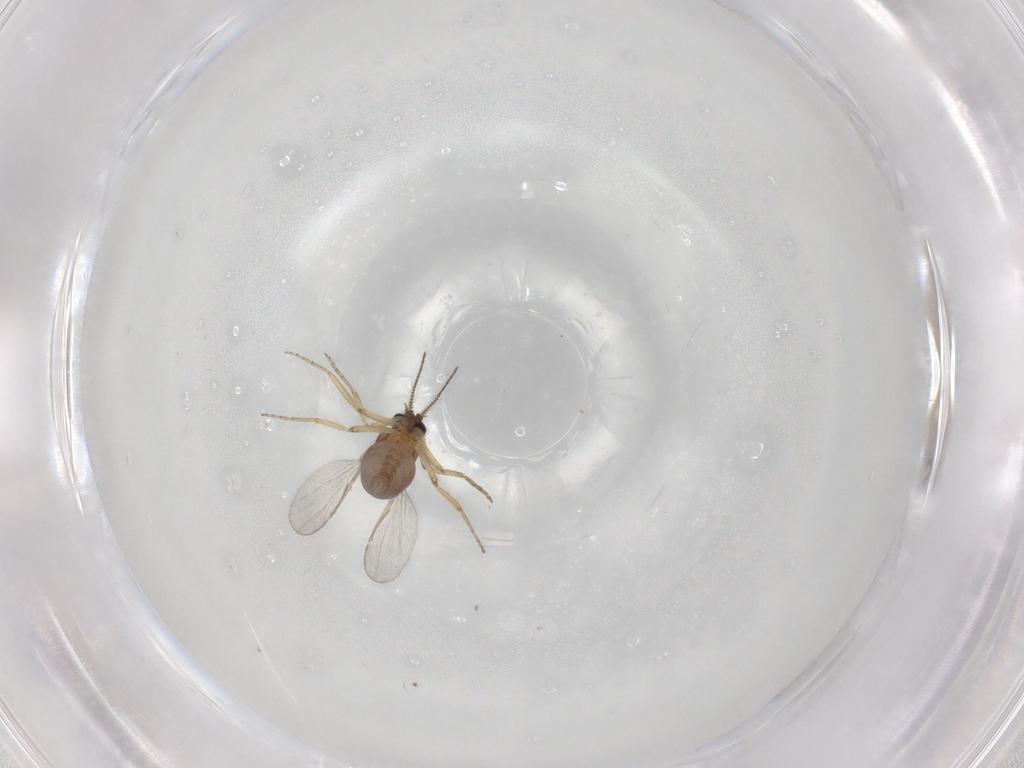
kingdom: Animalia
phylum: Arthropoda
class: Insecta
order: Diptera
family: Ceratopogonidae
